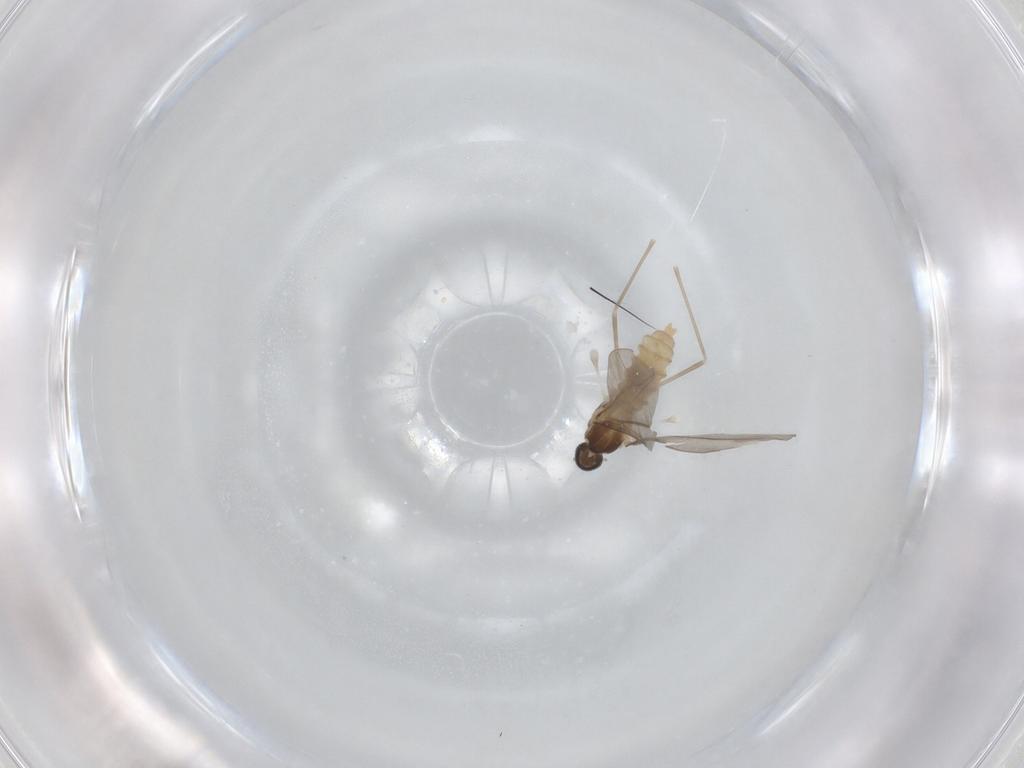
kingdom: Animalia
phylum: Arthropoda
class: Insecta
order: Diptera
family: Cecidomyiidae
